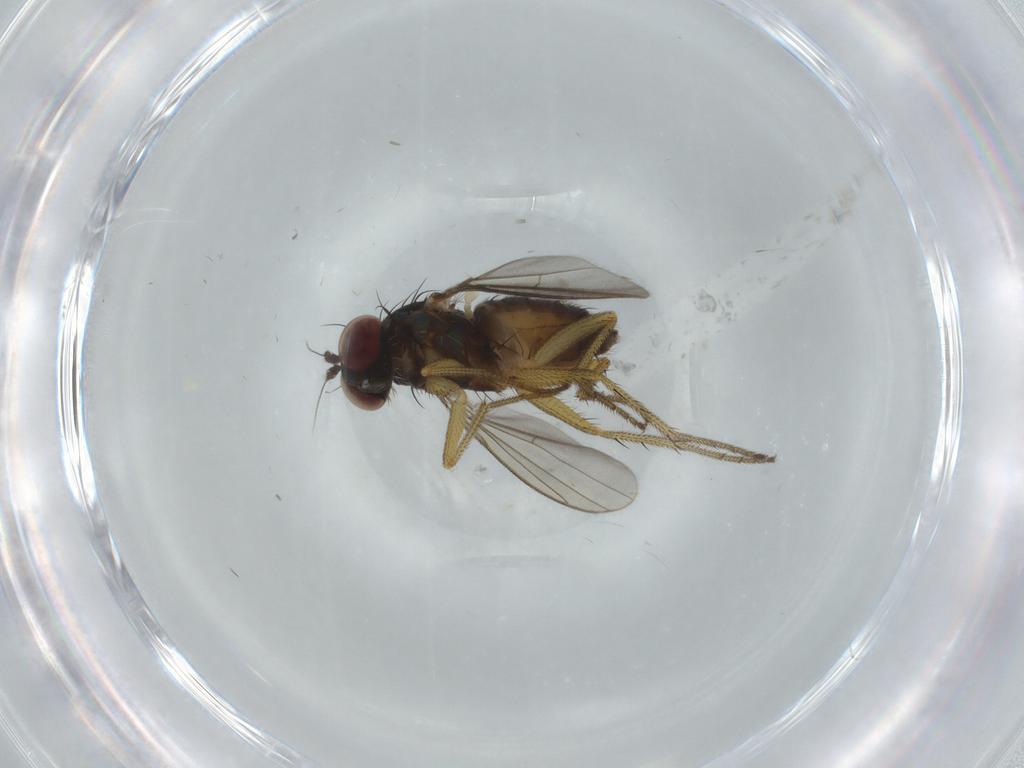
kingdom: Animalia
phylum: Arthropoda
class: Insecta
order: Diptera
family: Dolichopodidae
